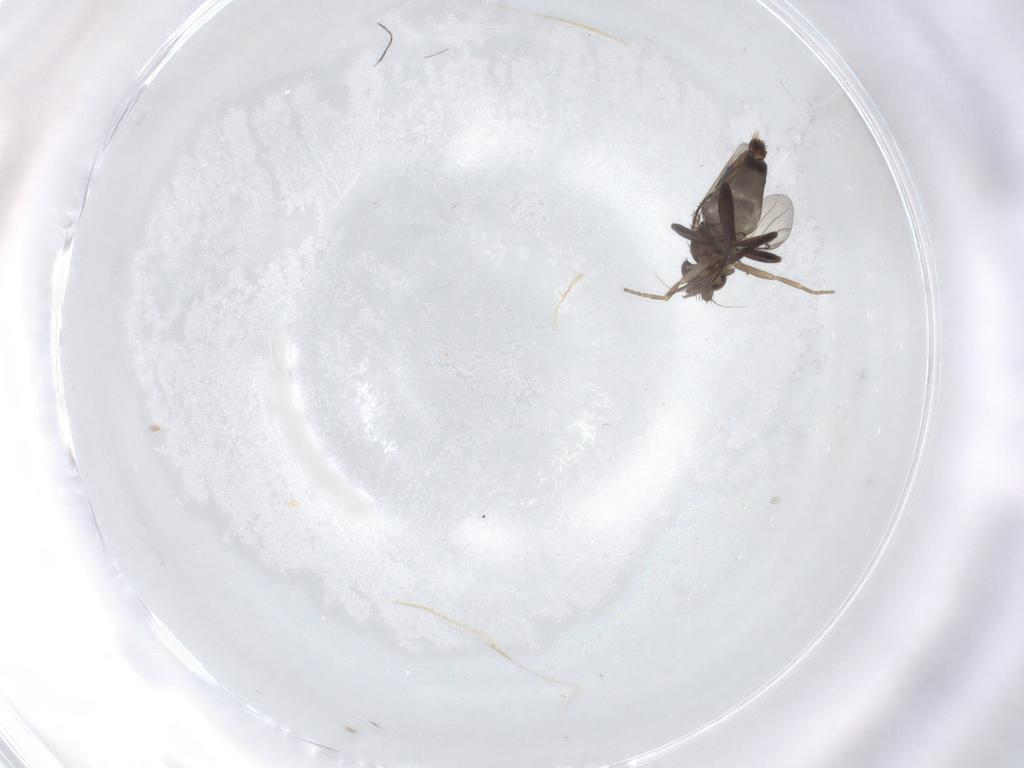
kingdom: Animalia
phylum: Arthropoda
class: Insecta
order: Diptera
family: Phoridae
